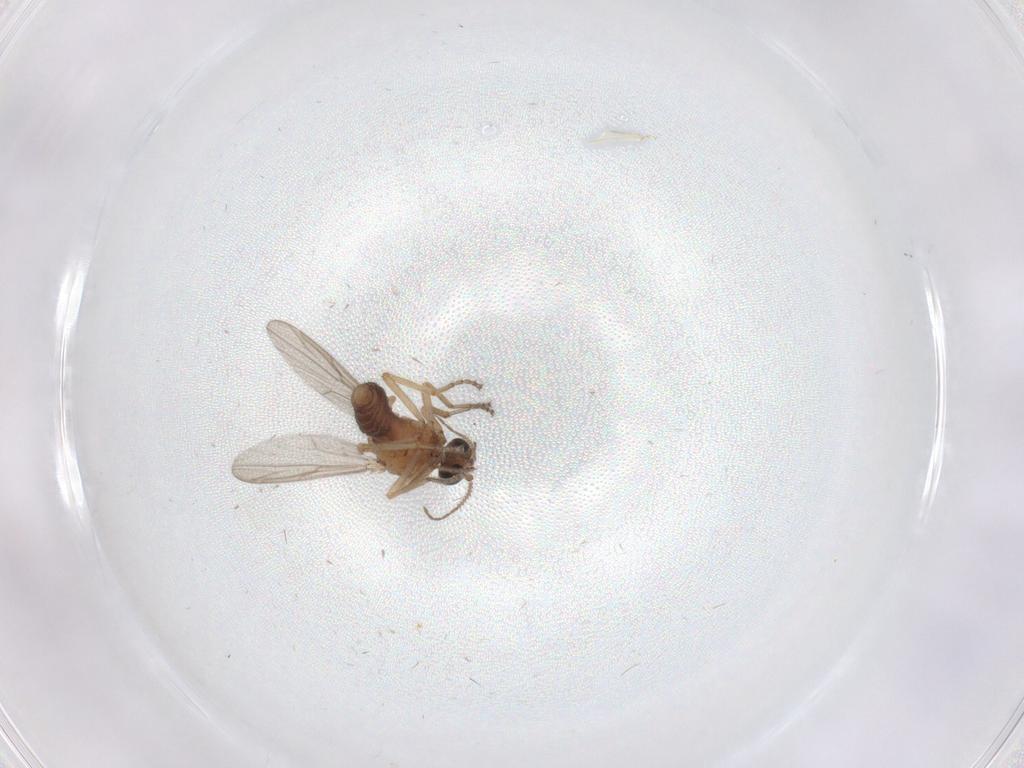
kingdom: Animalia
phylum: Arthropoda
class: Insecta
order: Diptera
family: Ceratopogonidae
